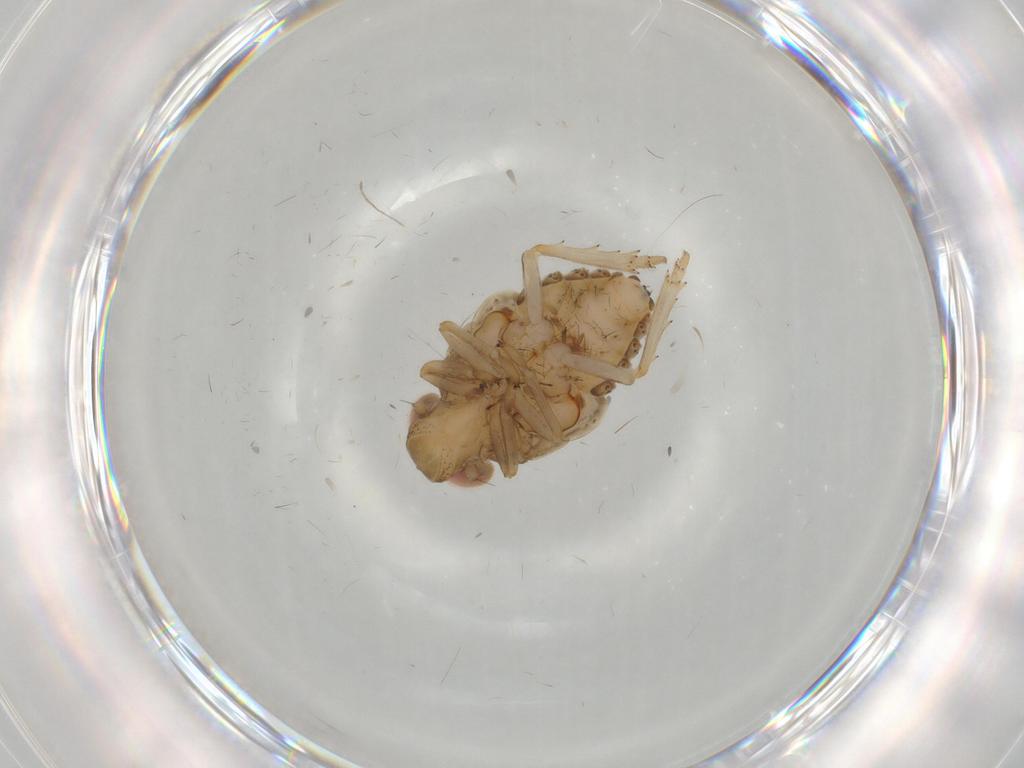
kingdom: Animalia
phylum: Arthropoda
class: Insecta
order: Hemiptera
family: Issidae
